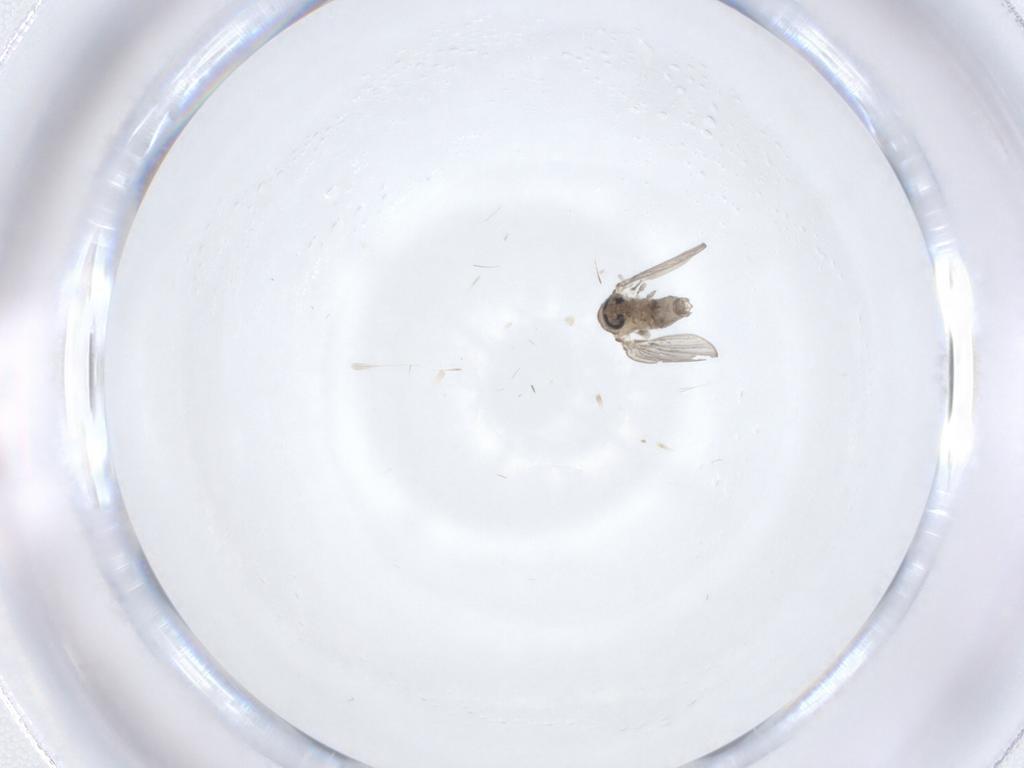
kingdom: Animalia
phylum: Arthropoda
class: Insecta
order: Diptera
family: Psychodidae
